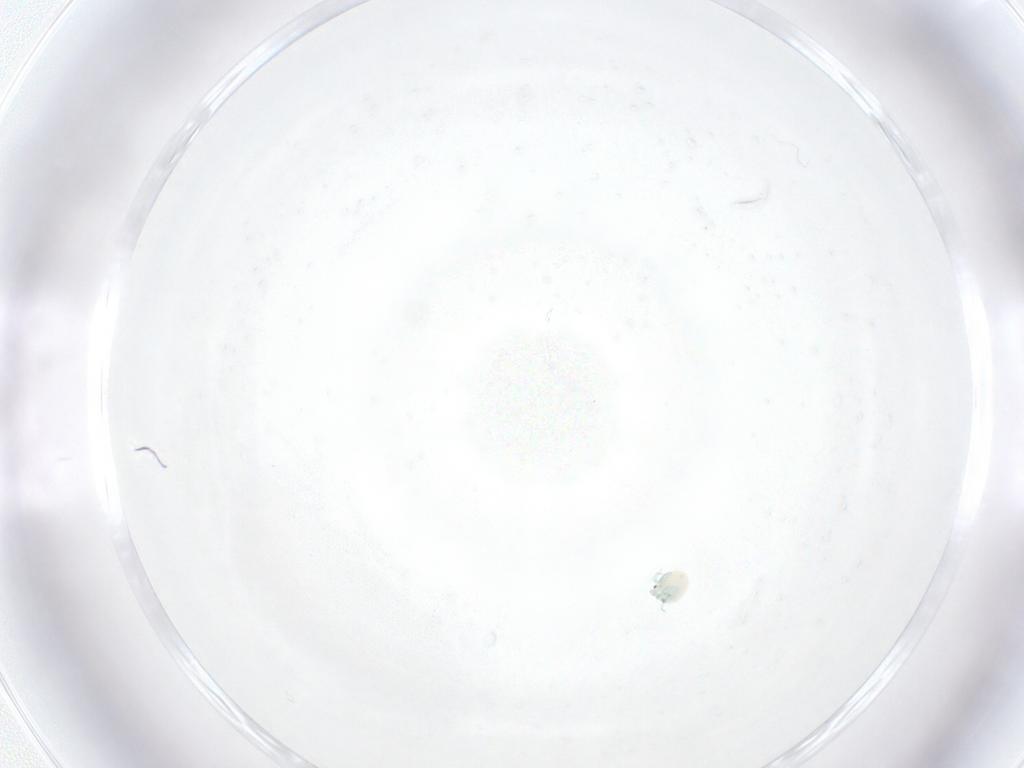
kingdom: Animalia
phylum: Arthropoda
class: Arachnida
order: Trombidiformes
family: Arrenuridae
